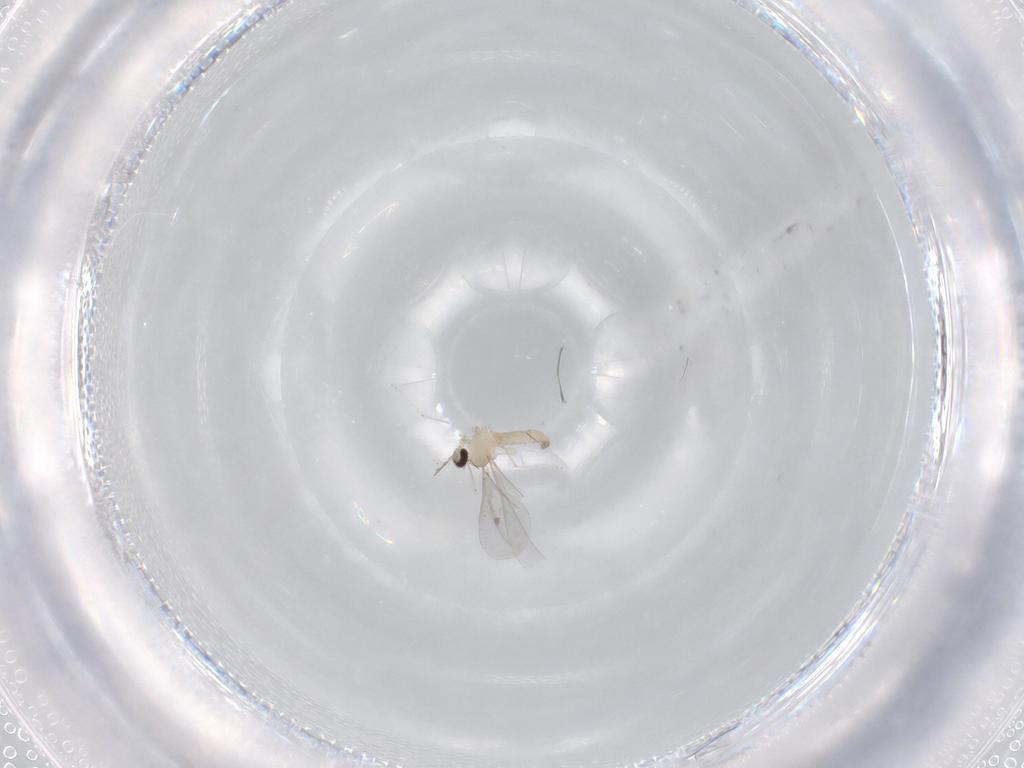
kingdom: Animalia
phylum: Arthropoda
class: Insecta
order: Diptera
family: Cecidomyiidae
